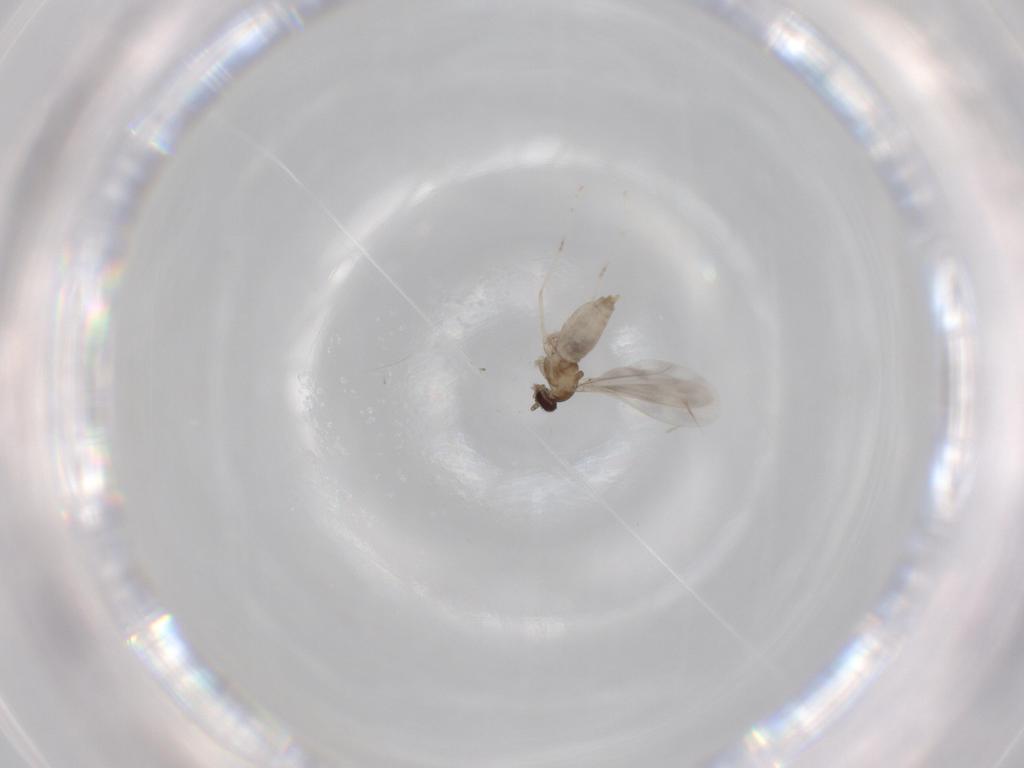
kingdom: Animalia
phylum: Arthropoda
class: Insecta
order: Diptera
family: Cecidomyiidae
